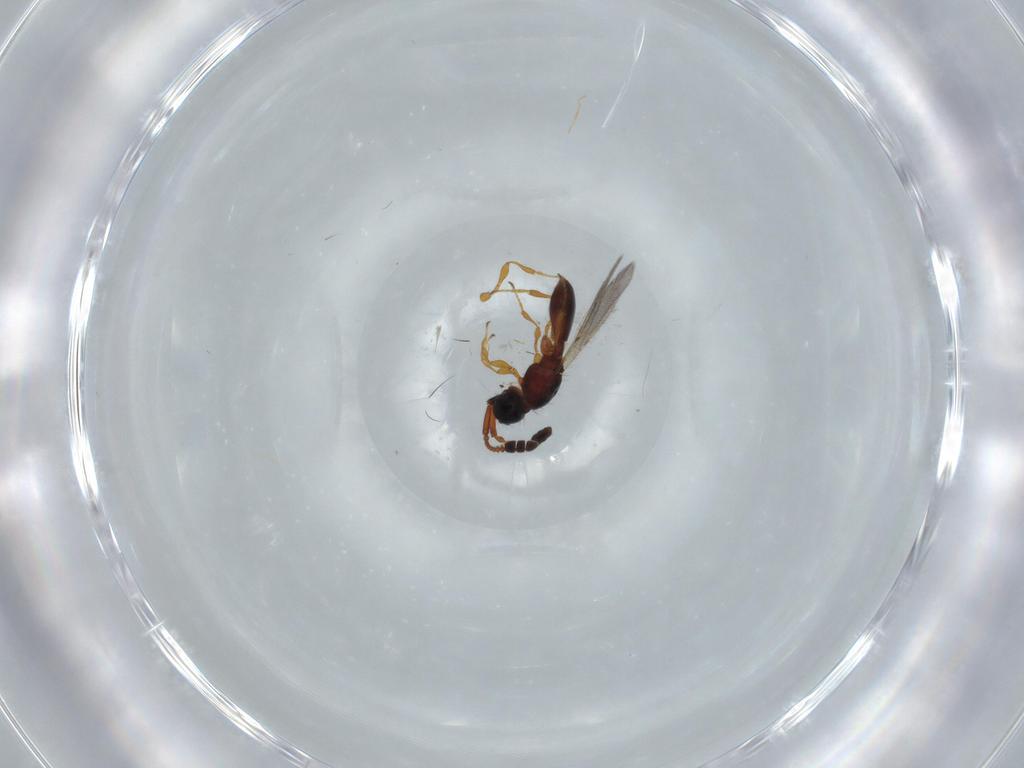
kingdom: Animalia
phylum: Arthropoda
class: Insecta
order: Hymenoptera
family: Diapriidae
